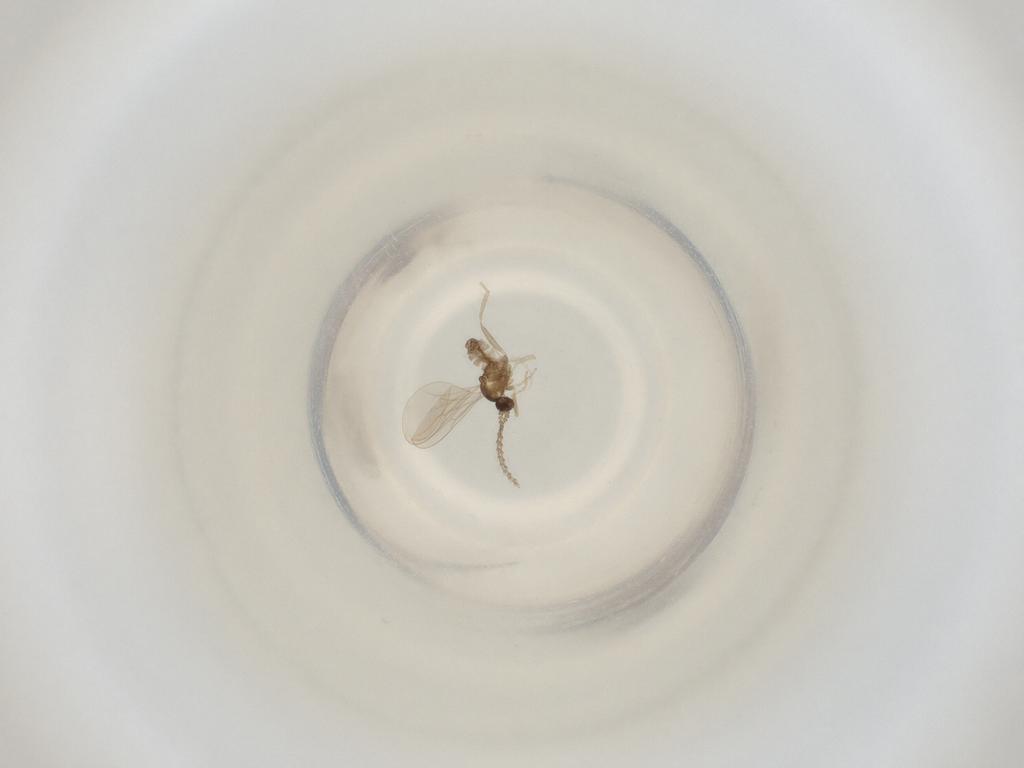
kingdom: Animalia
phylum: Arthropoda
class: Insecta
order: Diptera
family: Cecidomyiidae
